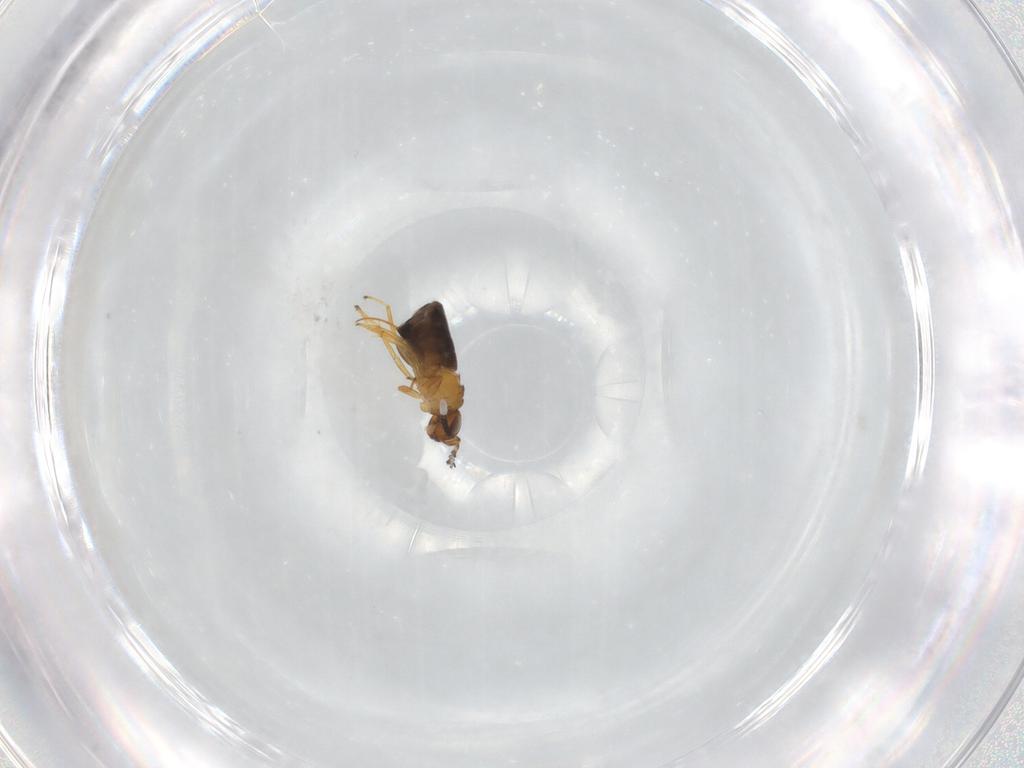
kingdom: Animalia
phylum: Arthropoda
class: Insecta
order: Hymenoptera
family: Encyrtidae
